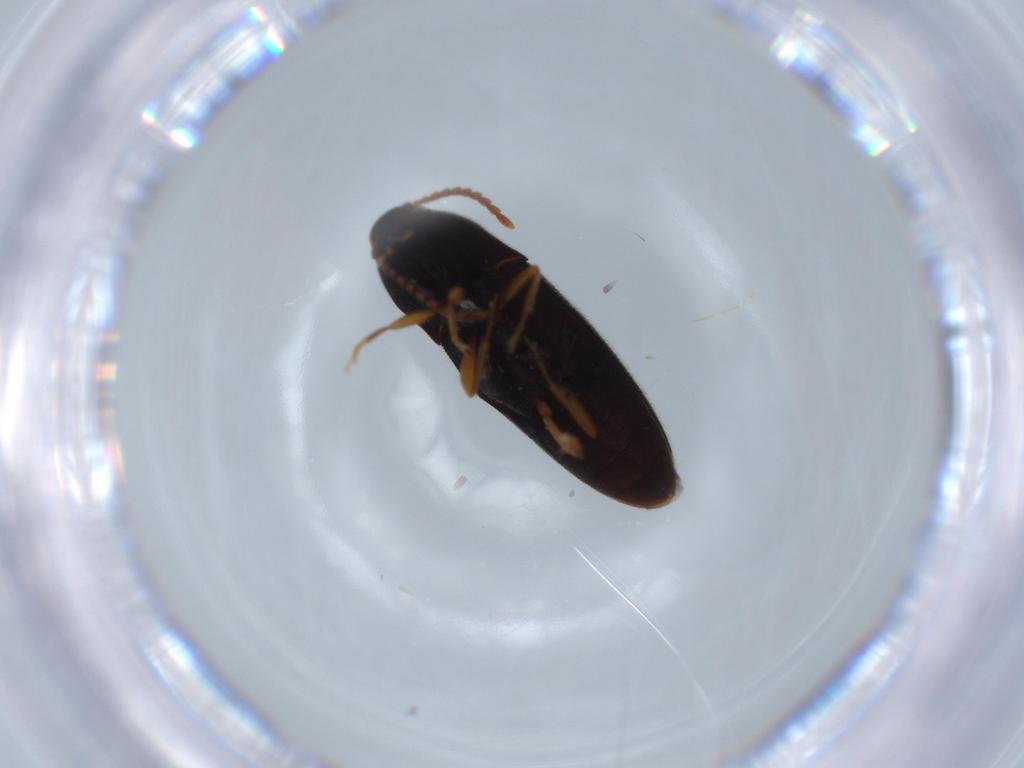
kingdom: Animalia
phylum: Arthropoda
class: Insecta
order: Coleoptera
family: Elateridae
